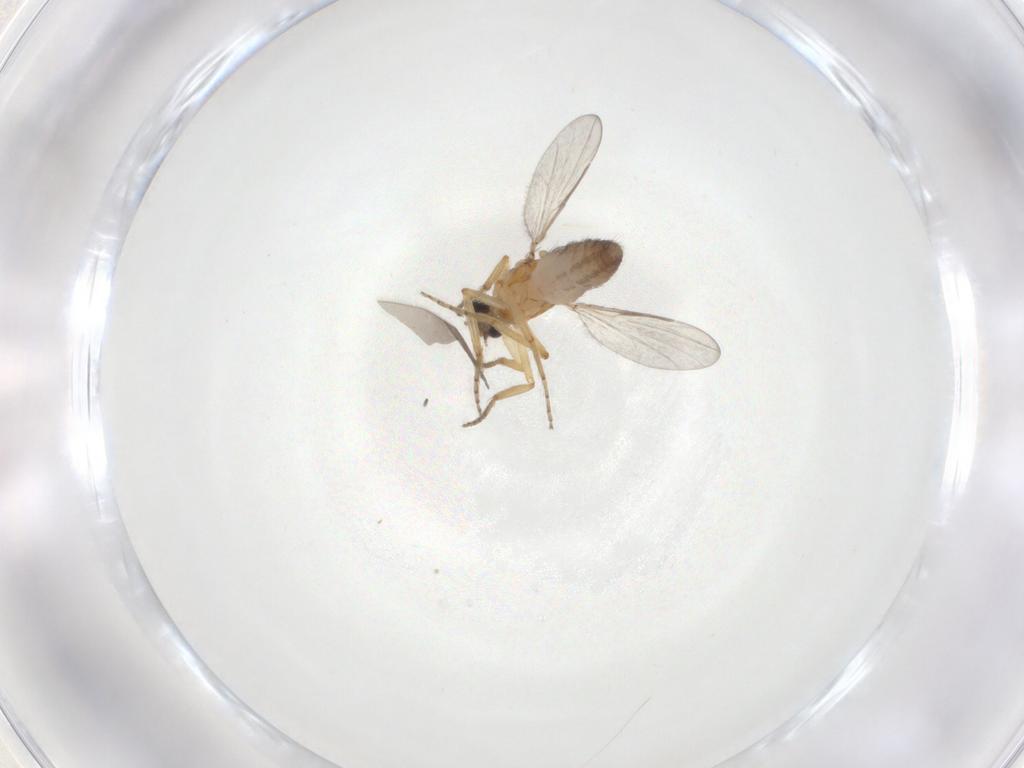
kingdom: Animalia
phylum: Arthropoda
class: Insecta
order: Diptera
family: Ceratopogonidae
